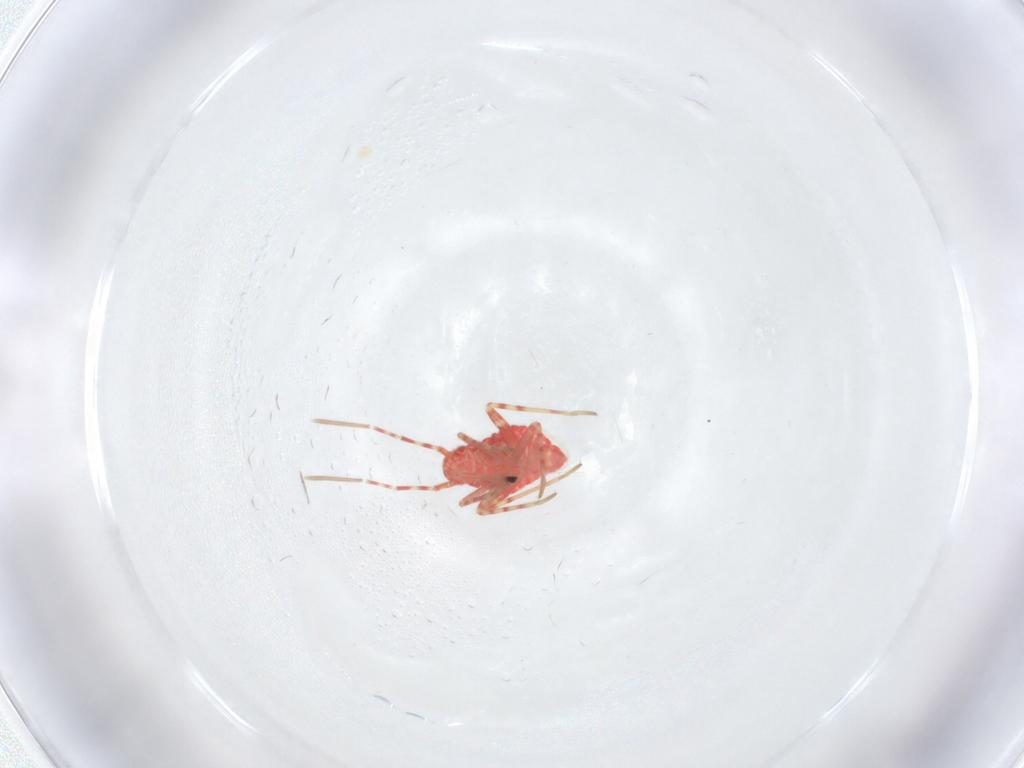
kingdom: Animalia
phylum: Arthropoda
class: Insecta
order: Hemiptera
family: Miridae
